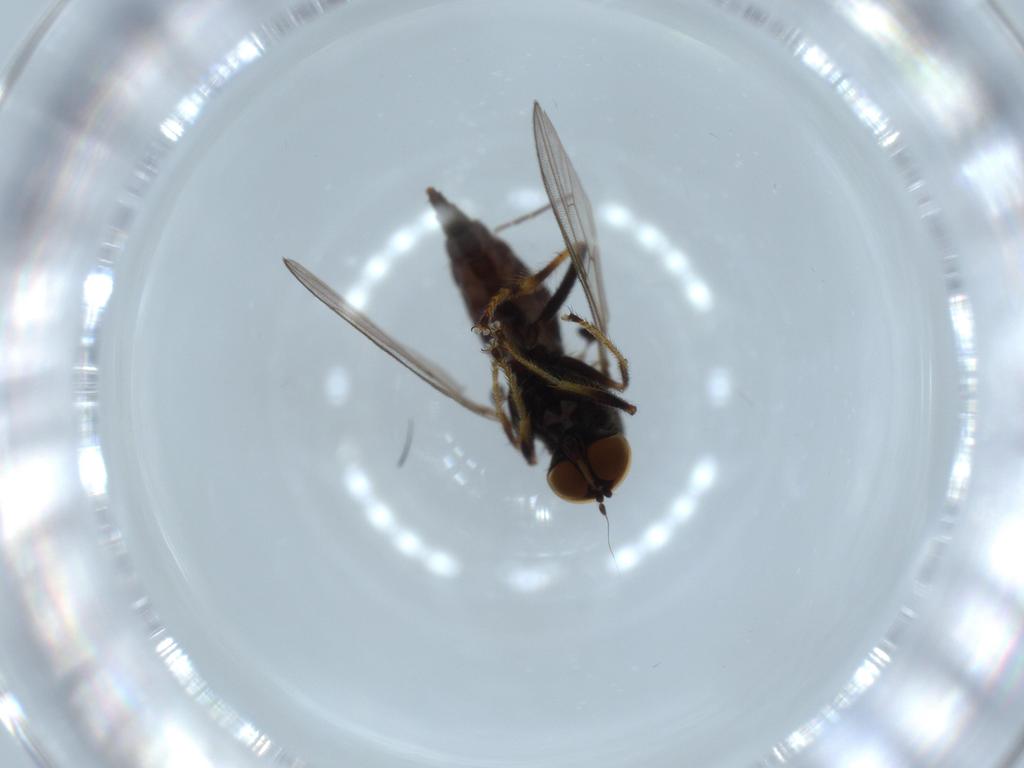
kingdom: Animalia
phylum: Arthropoda
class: Insecta
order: Diptera
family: Hybotidae
